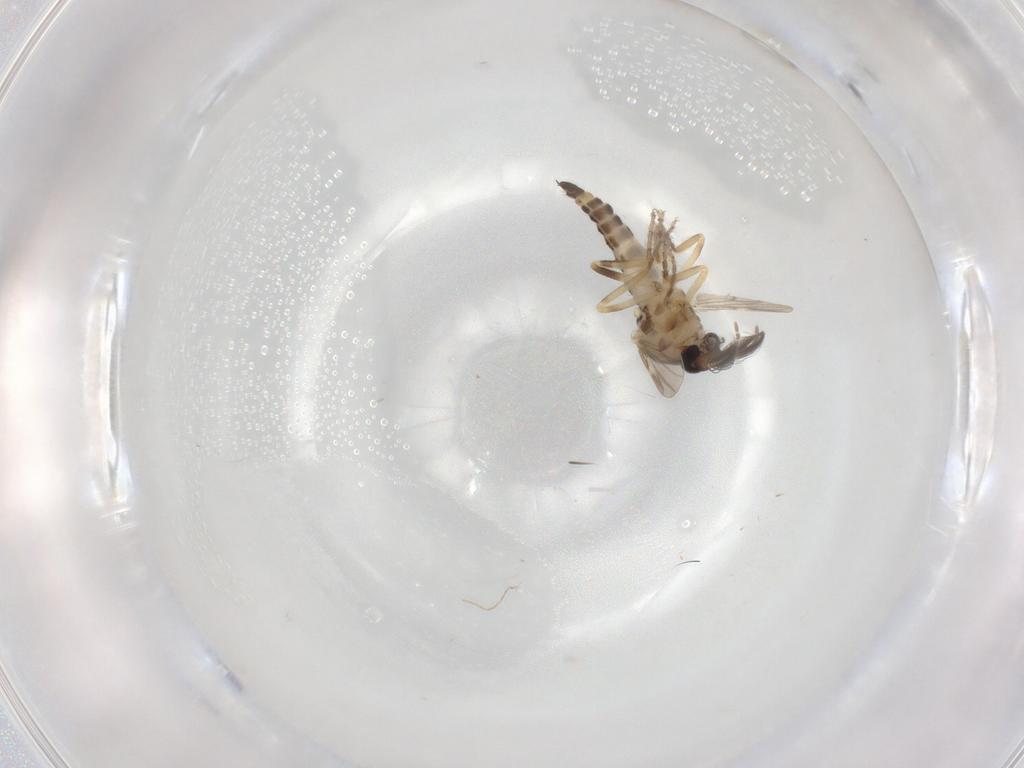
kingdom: Animalia
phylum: Arthropoda
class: Insecta
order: Diptera
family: Ceratopogonidae
